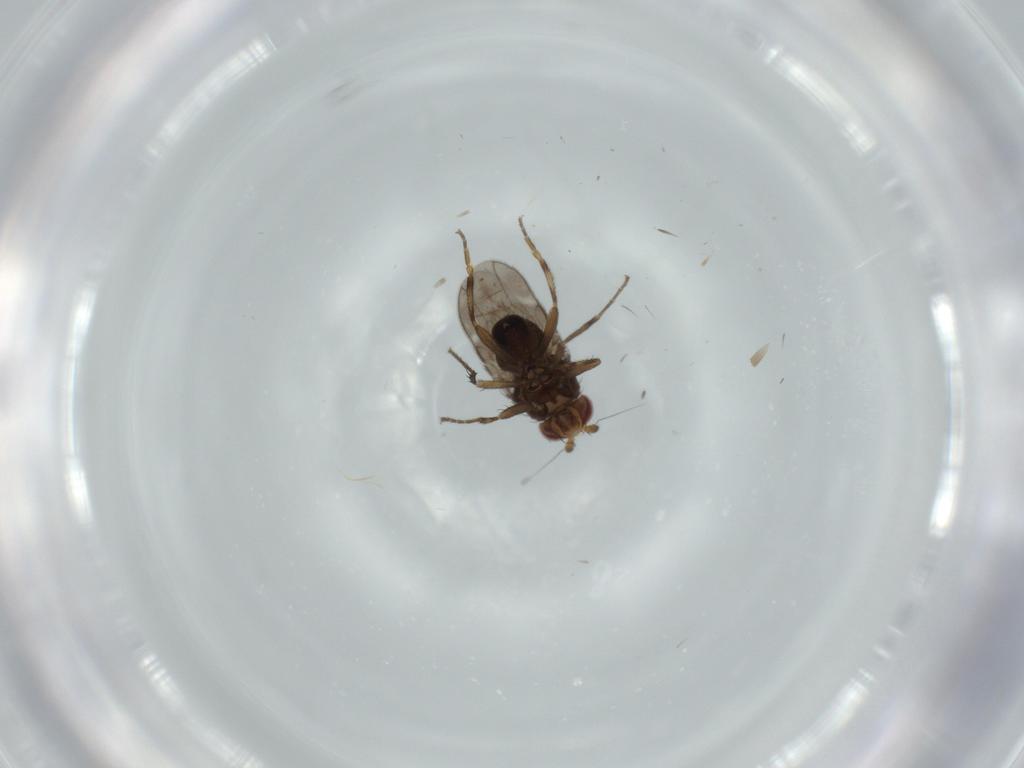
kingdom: Animalia
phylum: Arthropoda
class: Insecta
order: Diptera
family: Sphaeroceridae
